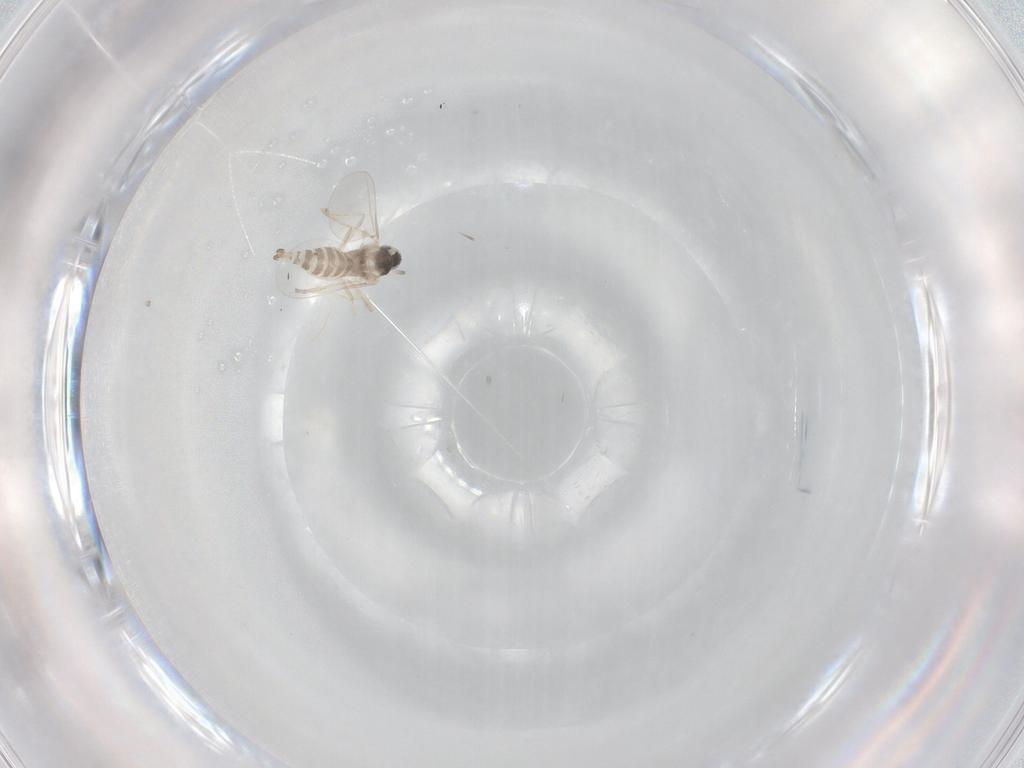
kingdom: Animalia
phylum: Arthropoda
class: Insecta
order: Diptera
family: Cecidomyiidae
